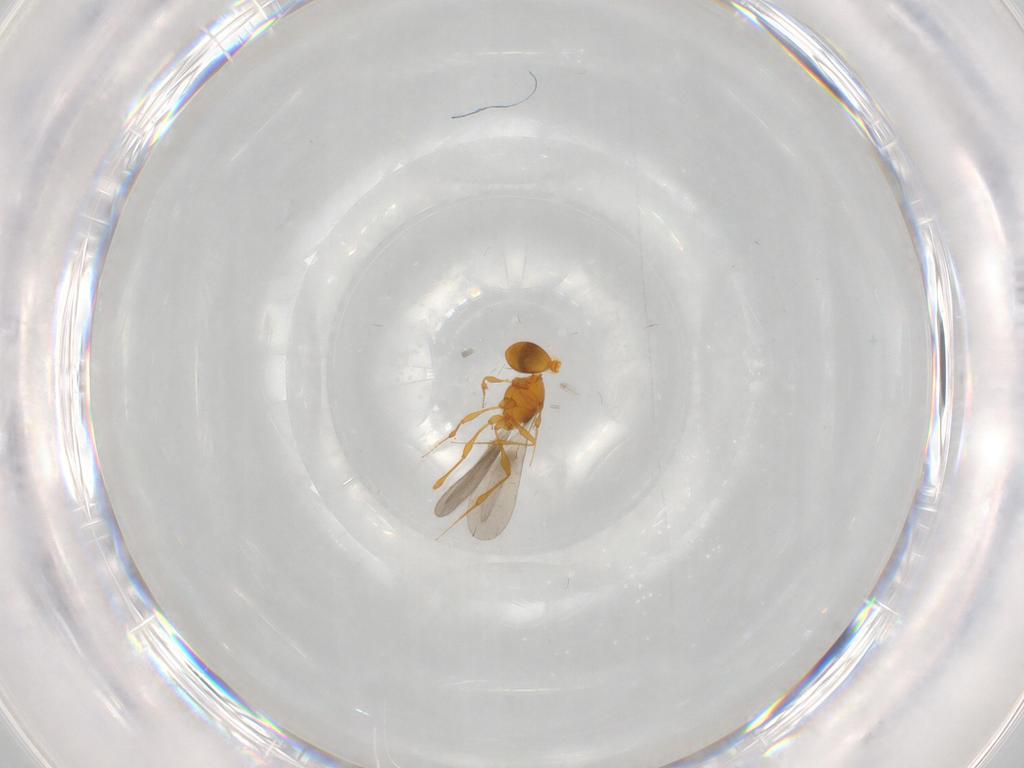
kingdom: Animalia
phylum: Arthropoda
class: Insecta
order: Hymenoptera
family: Platygastridae
